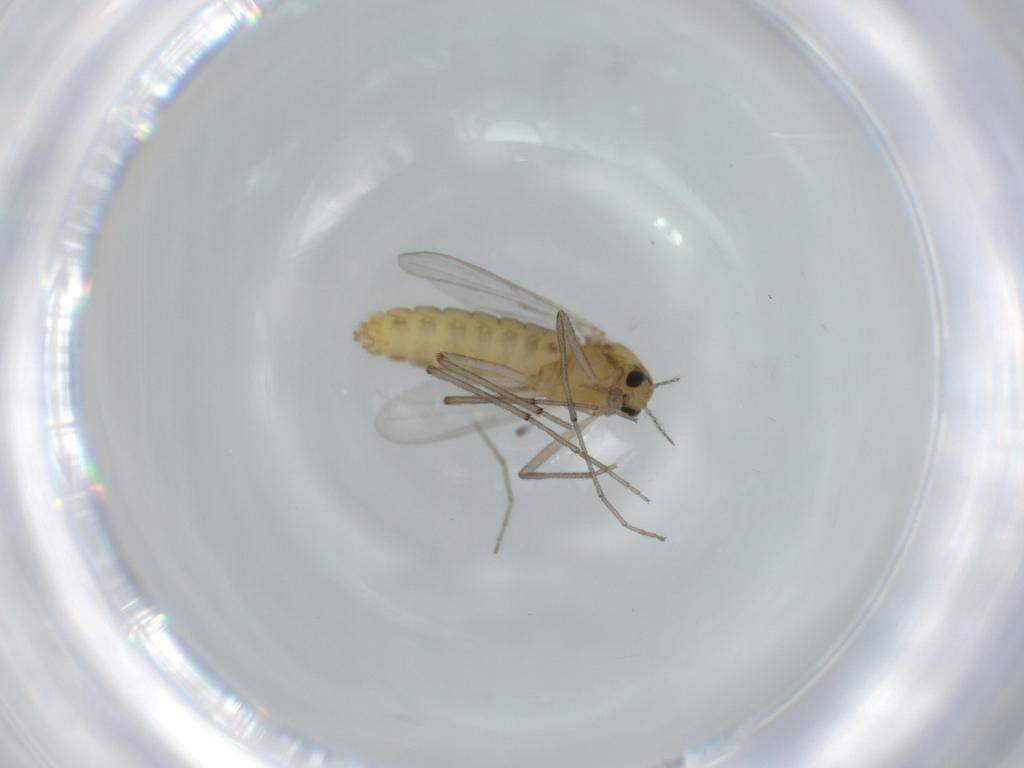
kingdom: Animalia
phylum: Arthropoda
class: Insecta
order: Diptera
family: Chironomidae
